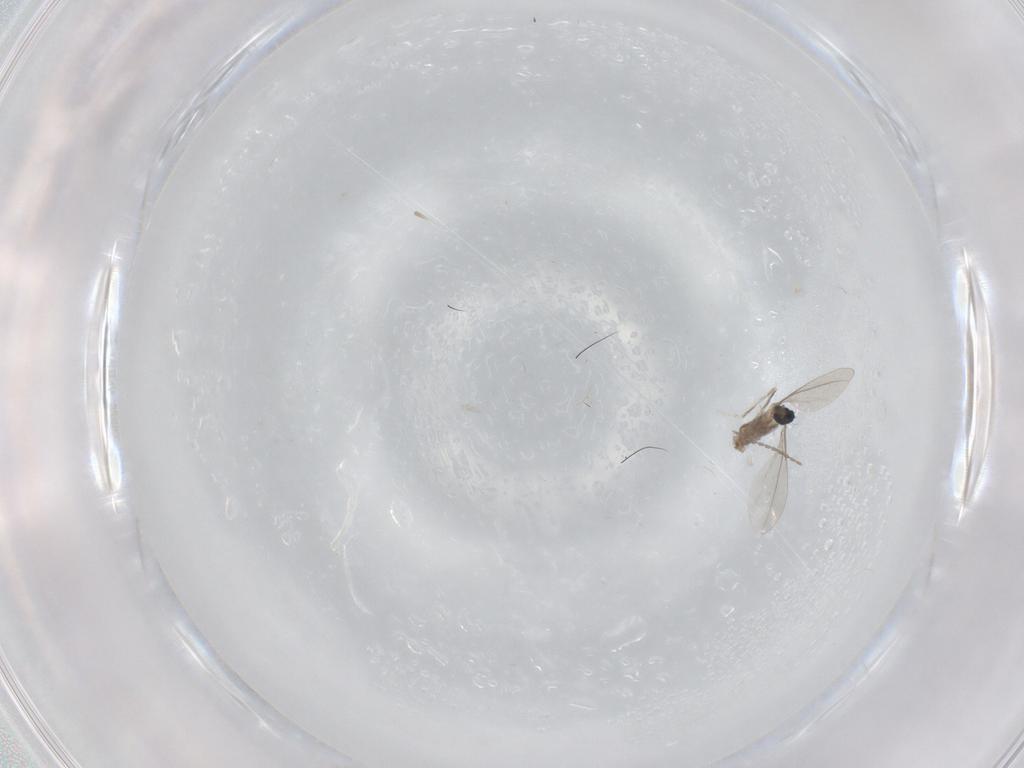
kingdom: Animalia
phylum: Arthropoda
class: Insecta
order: Diptera
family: Cecidomyiidae
